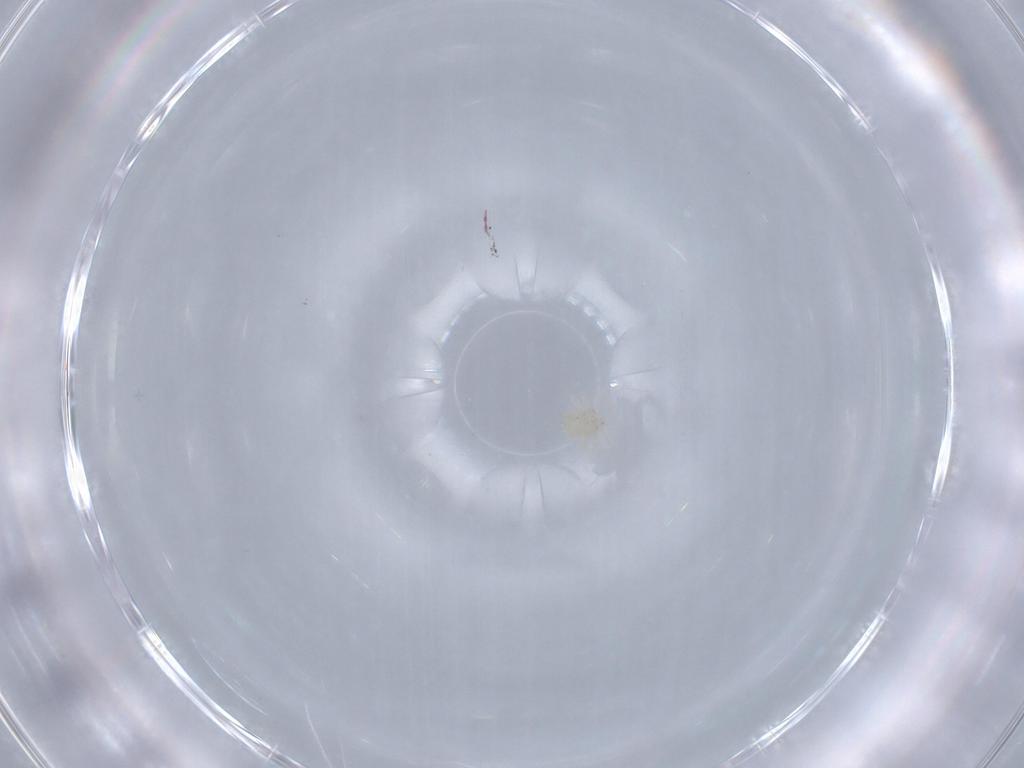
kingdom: Animalia
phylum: Arthropoda
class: Arachnida
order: Trombidiformes
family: Anystidae
